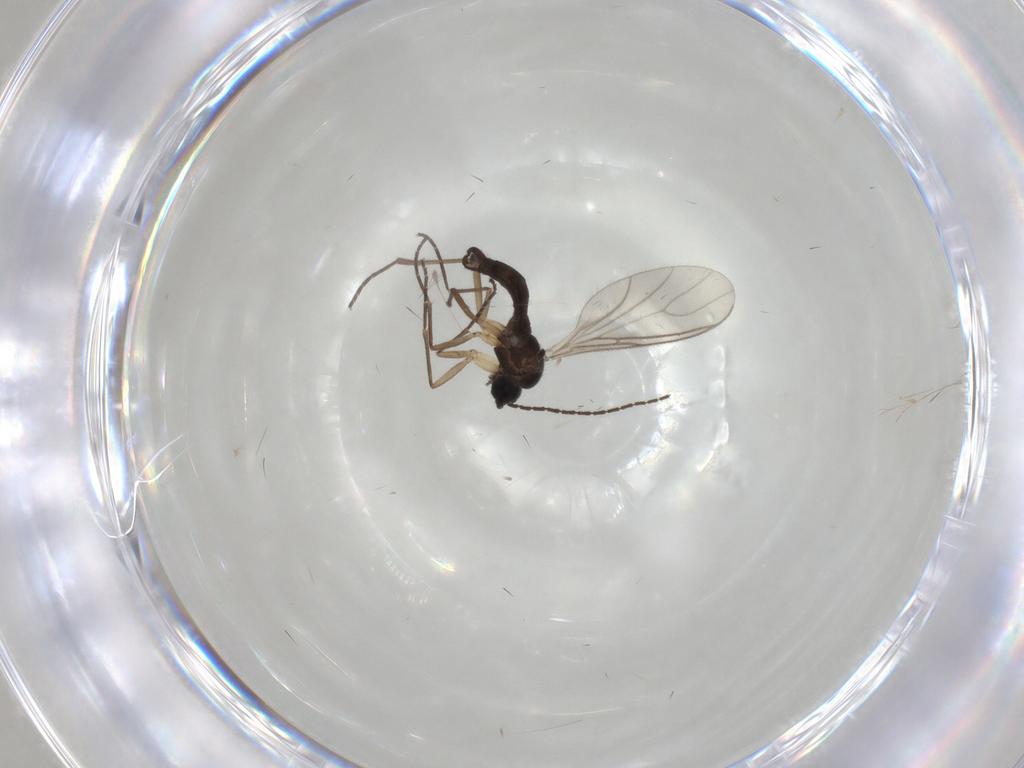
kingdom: Animalia
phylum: Arthropoda
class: Insecta
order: Diptera
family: Sciaridae
